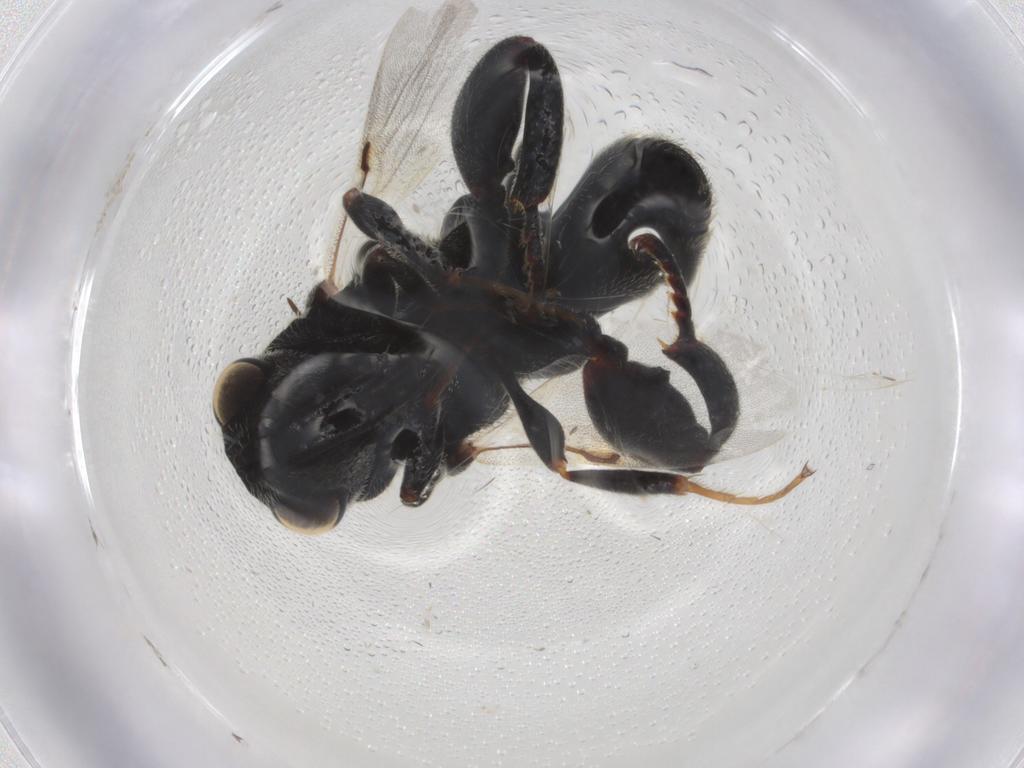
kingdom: Animalia
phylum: Arthropoda
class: Insecta
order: Hymenoptera
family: Chalcididae
